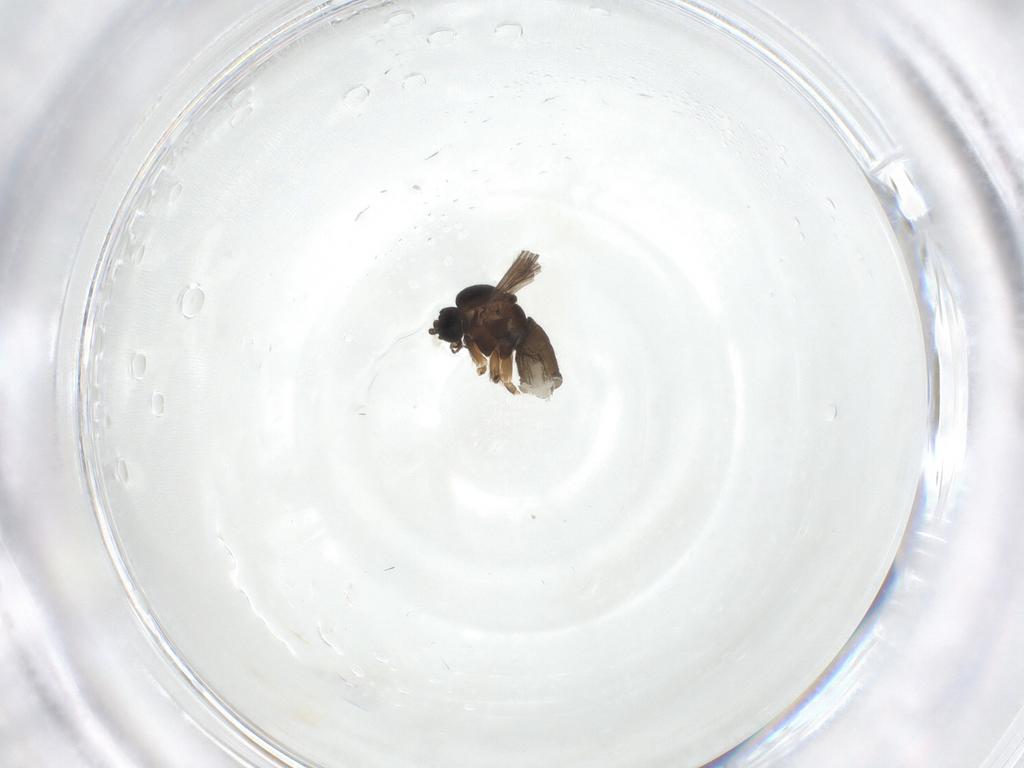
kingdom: Animalia
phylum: Arthropoda
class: Insecta
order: Diptera
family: Sciaridae
